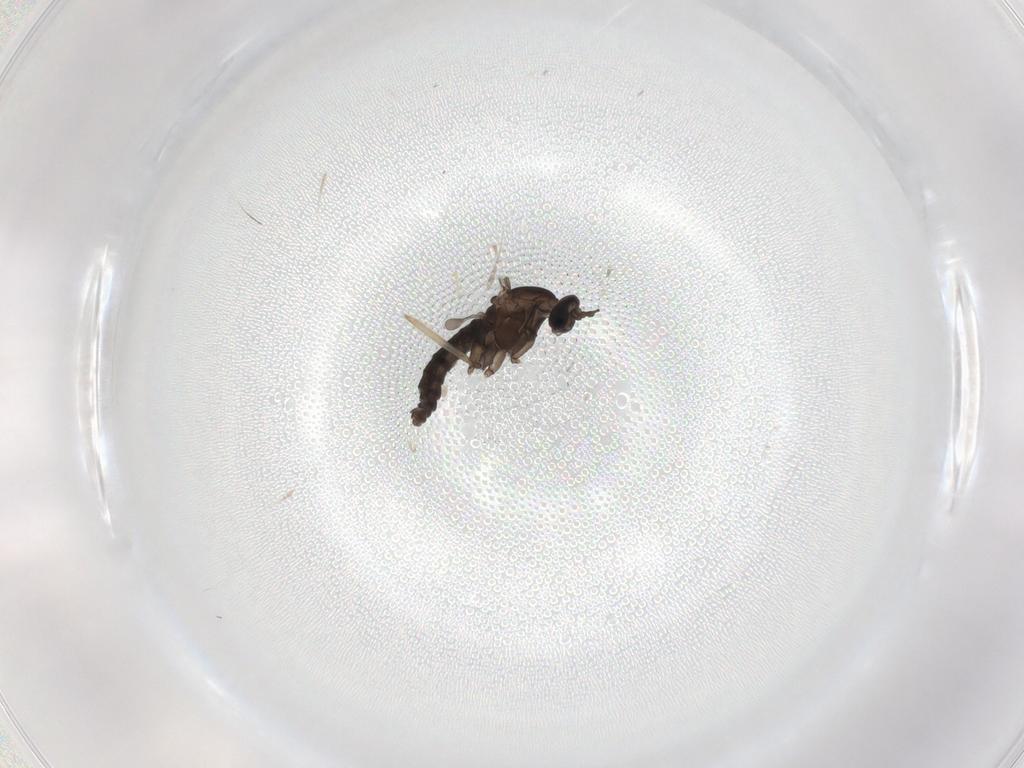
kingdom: Animalia
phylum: Arthropoda
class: Insecta
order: Diptera
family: Cecidomyiidae
